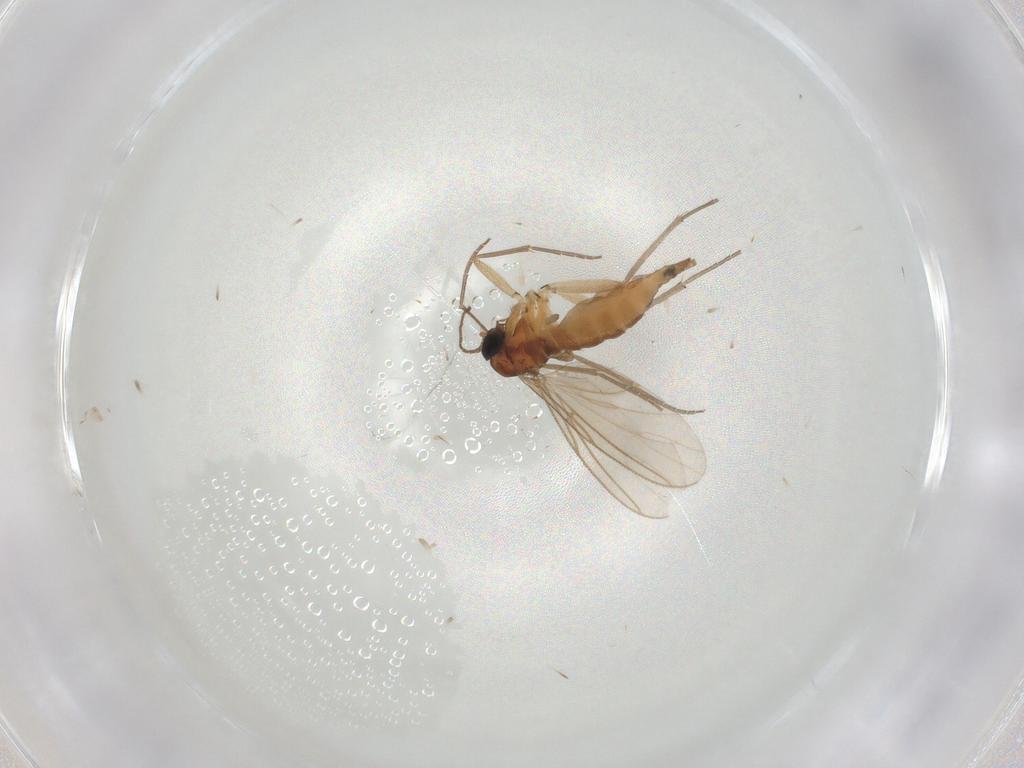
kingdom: Animalia
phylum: Arthropoda
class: Insecta
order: Diptera
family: Sciaridae
